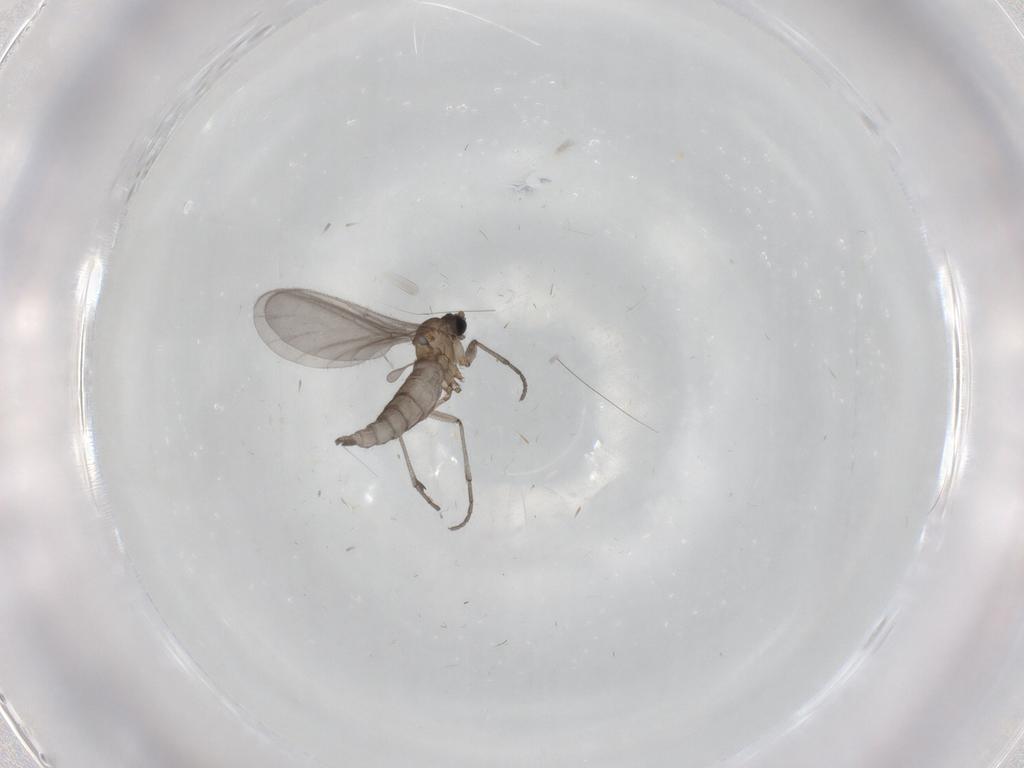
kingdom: Animalia
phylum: Arthropoda
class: Insecta
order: Diptera
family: Sciaridae
